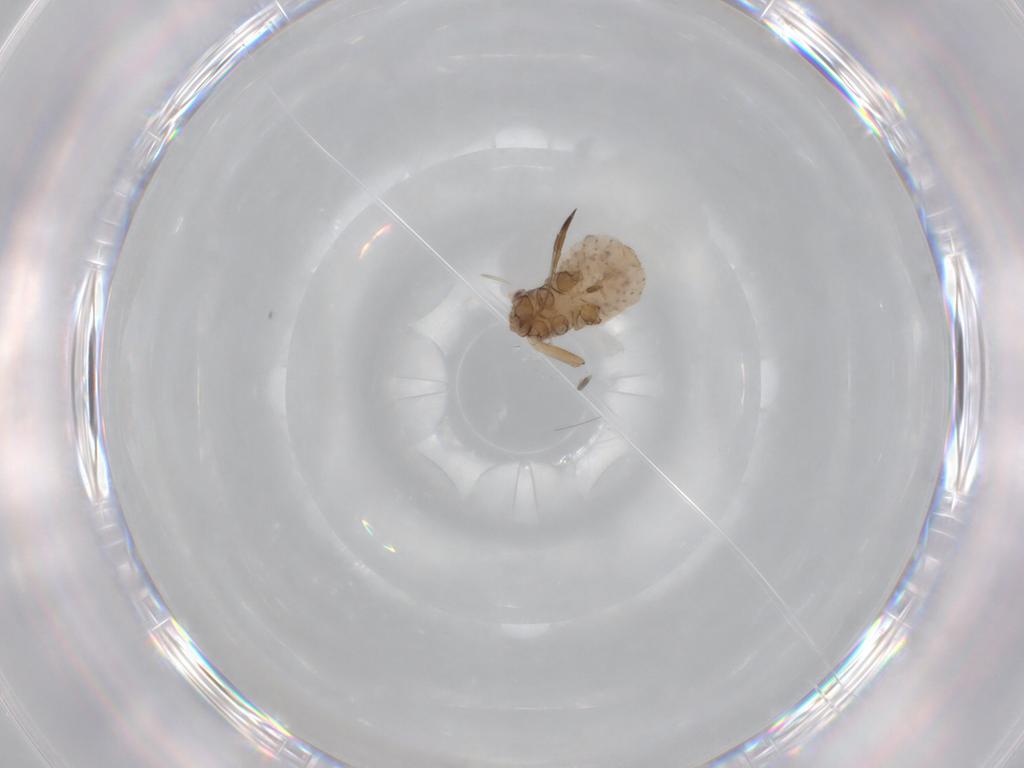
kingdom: Animalia
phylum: Arthropoda
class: Insecta
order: Hemiptera
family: Aphididae
